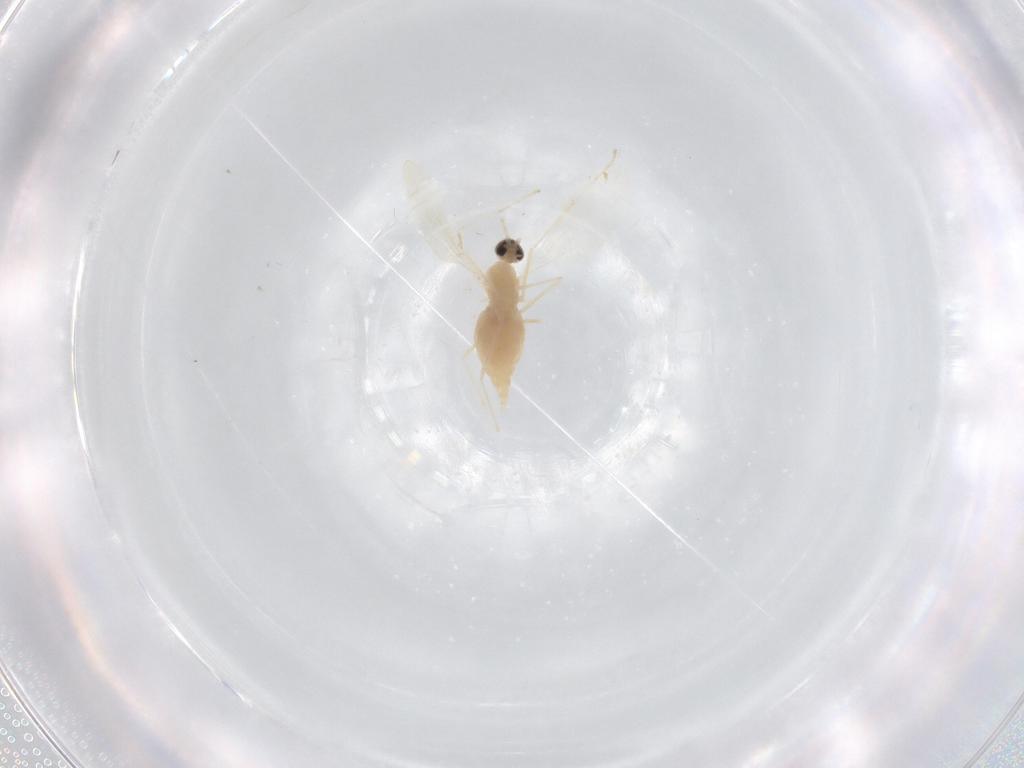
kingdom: Animalia
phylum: Arthropoda
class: Insecta
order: Diptera
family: Cecidomyiidae
